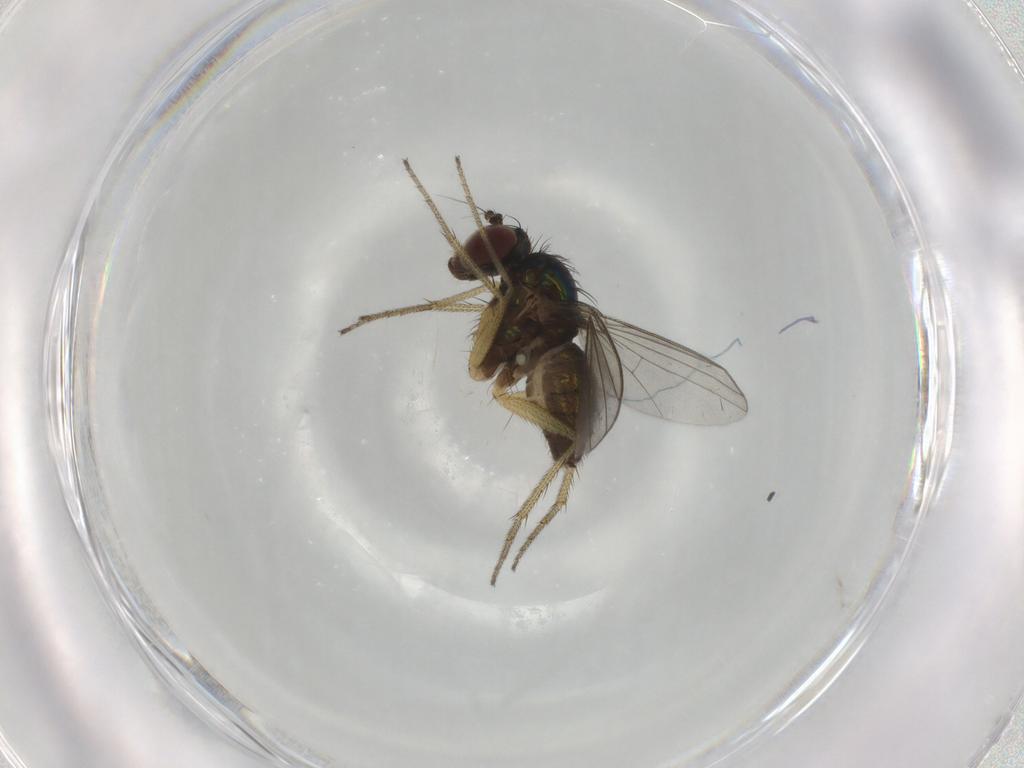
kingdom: Animalia
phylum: Arthropoda
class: Insecta
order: Diptera
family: Dolichopodidae
